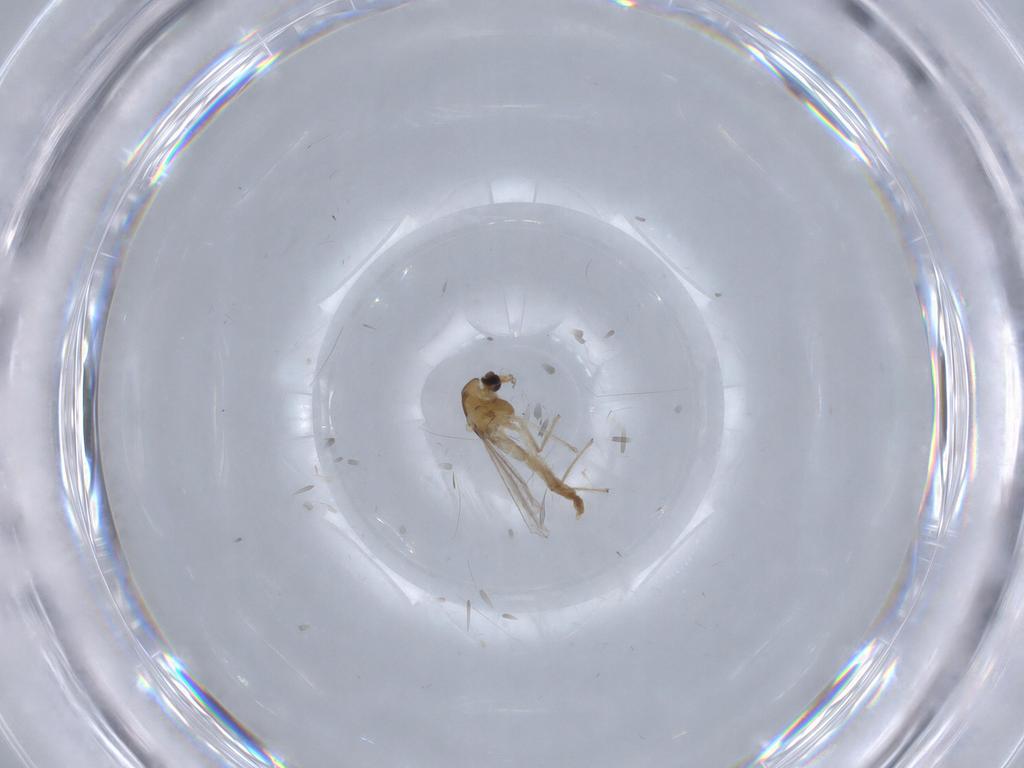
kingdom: Animalia
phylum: Arthropoda
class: Insecta
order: Diptera
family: Chironomidae
